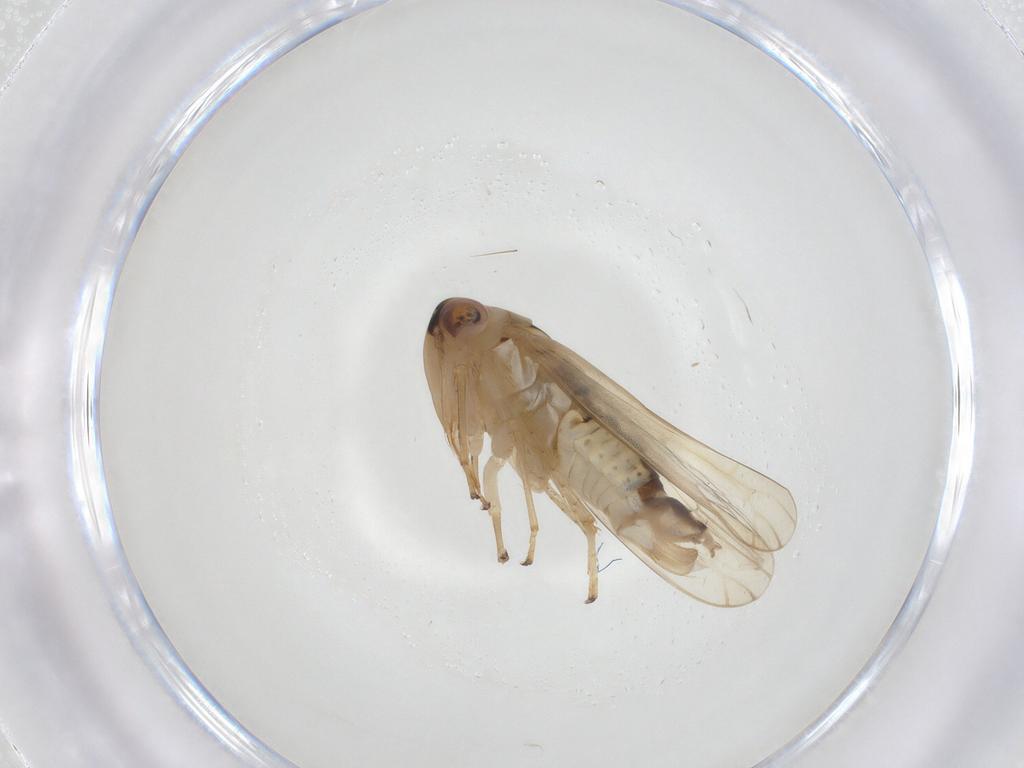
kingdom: Animalia
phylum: Arthropoda
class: Insecta
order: Hemiptera
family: Cicadellidae
